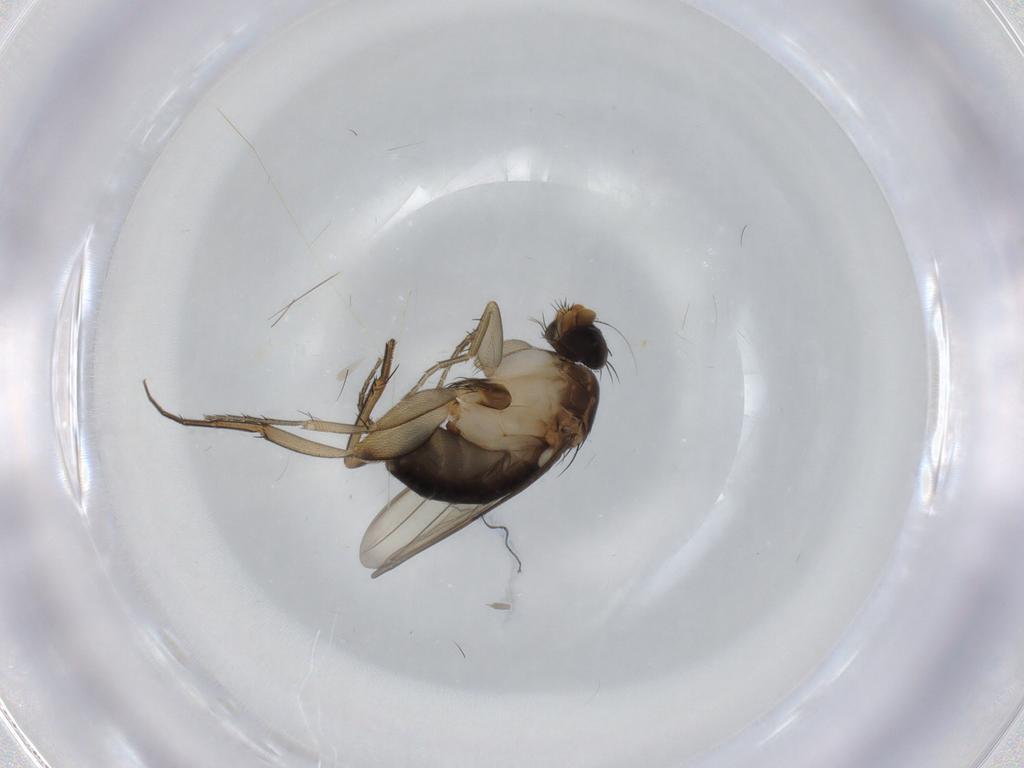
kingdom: Animalia
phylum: Arthropoda
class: Insecta
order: Diptera
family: Phoridae
